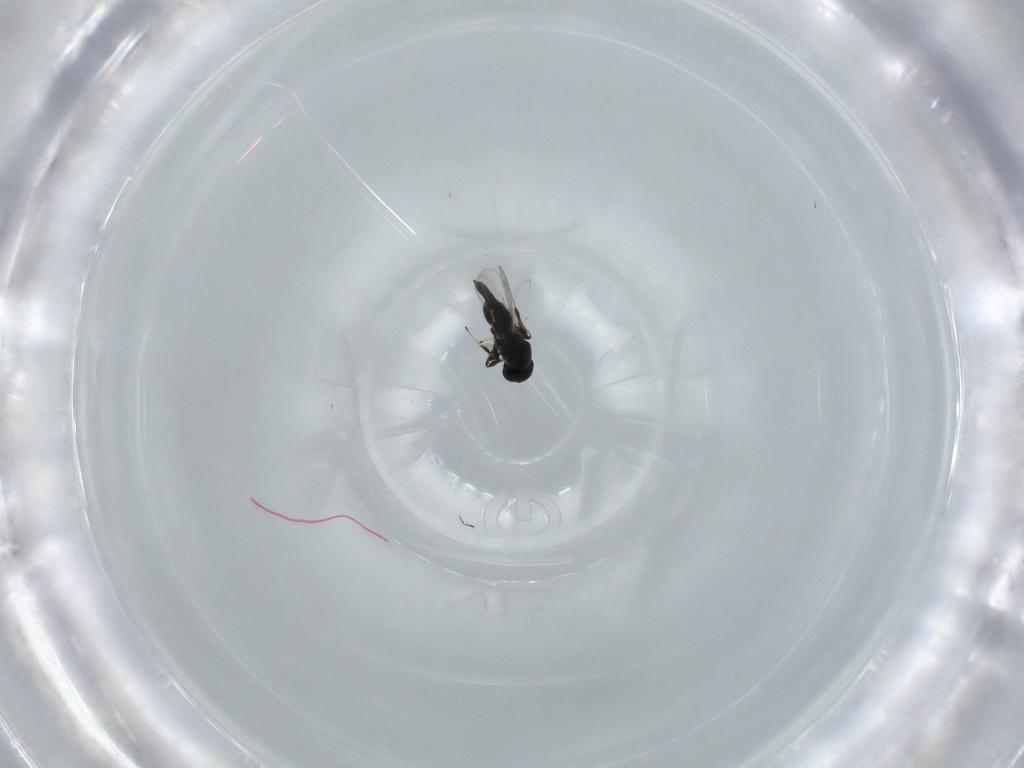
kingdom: Animalia
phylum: Arthropoda
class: Insecta
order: Hymenoptera
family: Platygastridae
